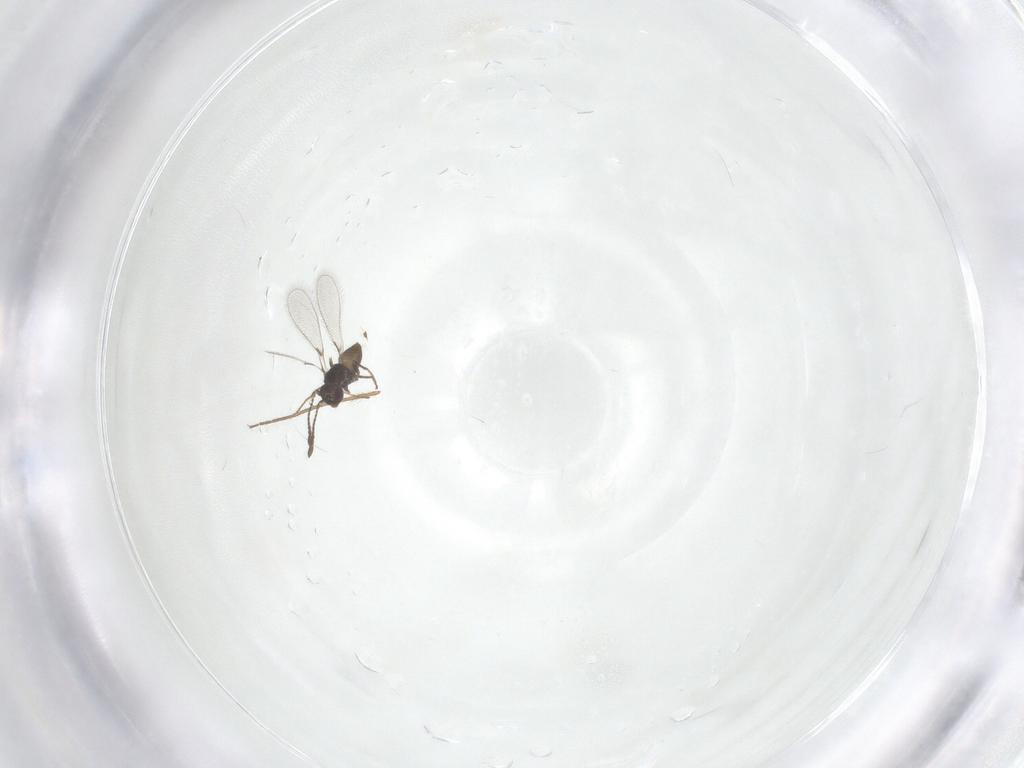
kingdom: Animalia
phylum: Arthropoda
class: Insecta
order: Hymenoptera
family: Mymaridae
